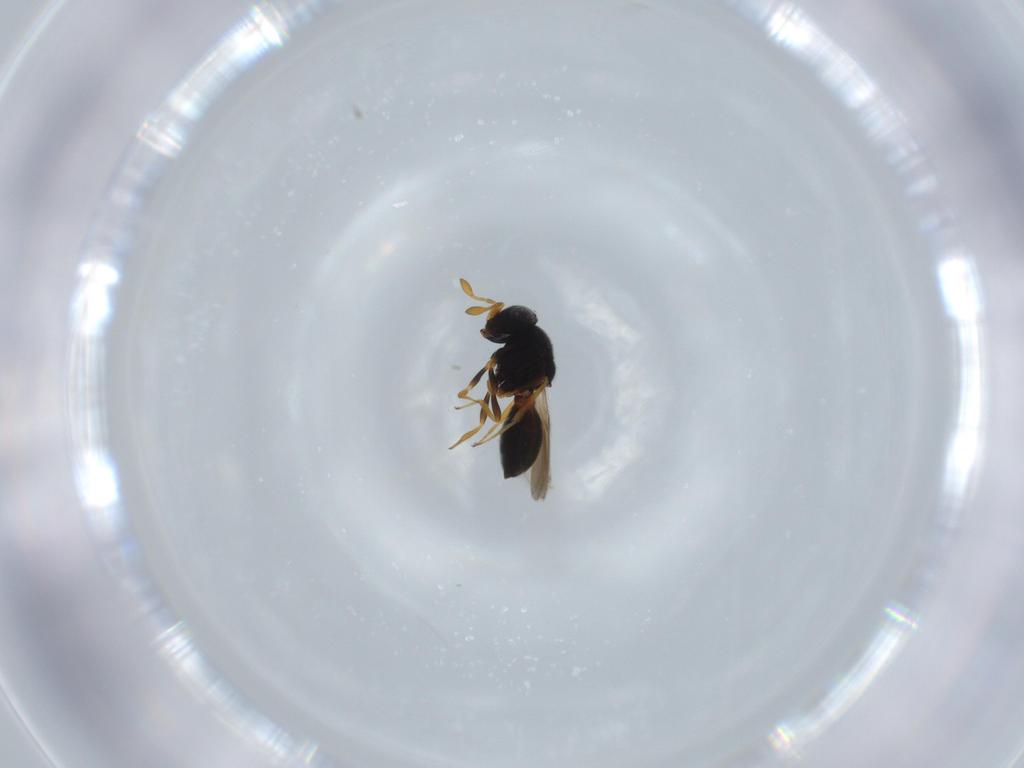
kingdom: Animalia
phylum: Arthropoda
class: Insecta
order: Hymenoptera
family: Scelionidae
